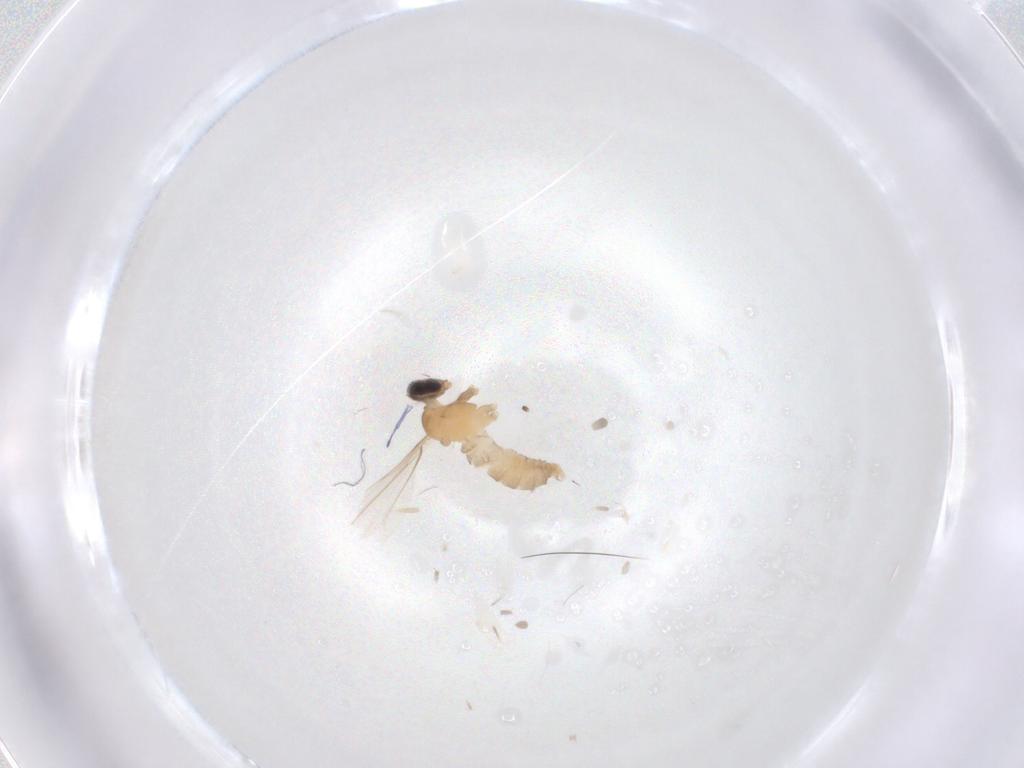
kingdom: Animalia
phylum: Arthropoda
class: Insecta
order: Diptera
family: Cecidomyiidae
